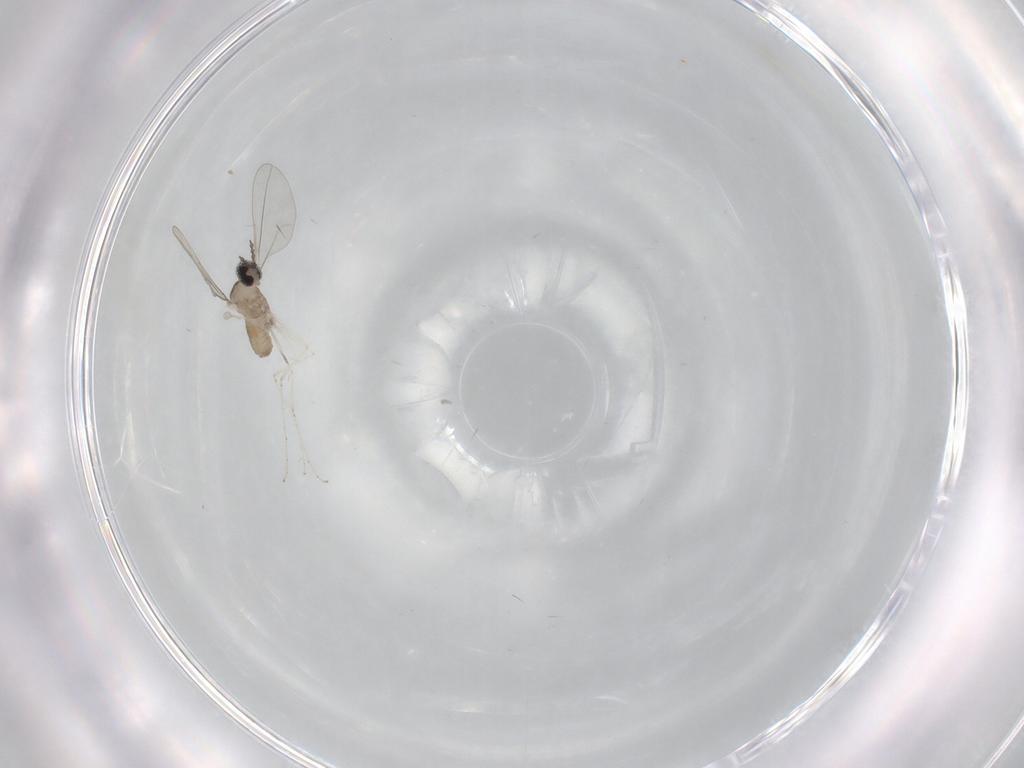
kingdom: Animalia
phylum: Arthropoda
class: Insecta
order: Diptera
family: Cecidomyiidae
